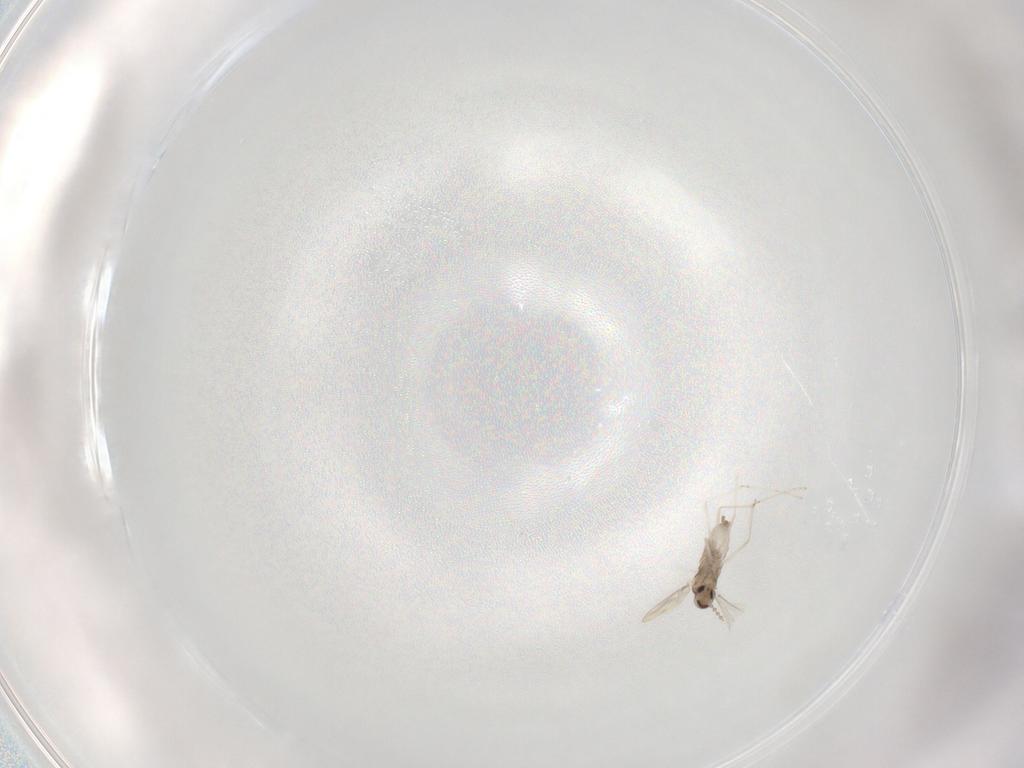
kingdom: Animalia
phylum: Arthropoda
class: Insecta
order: Diptera
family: Cecidomyiidae
